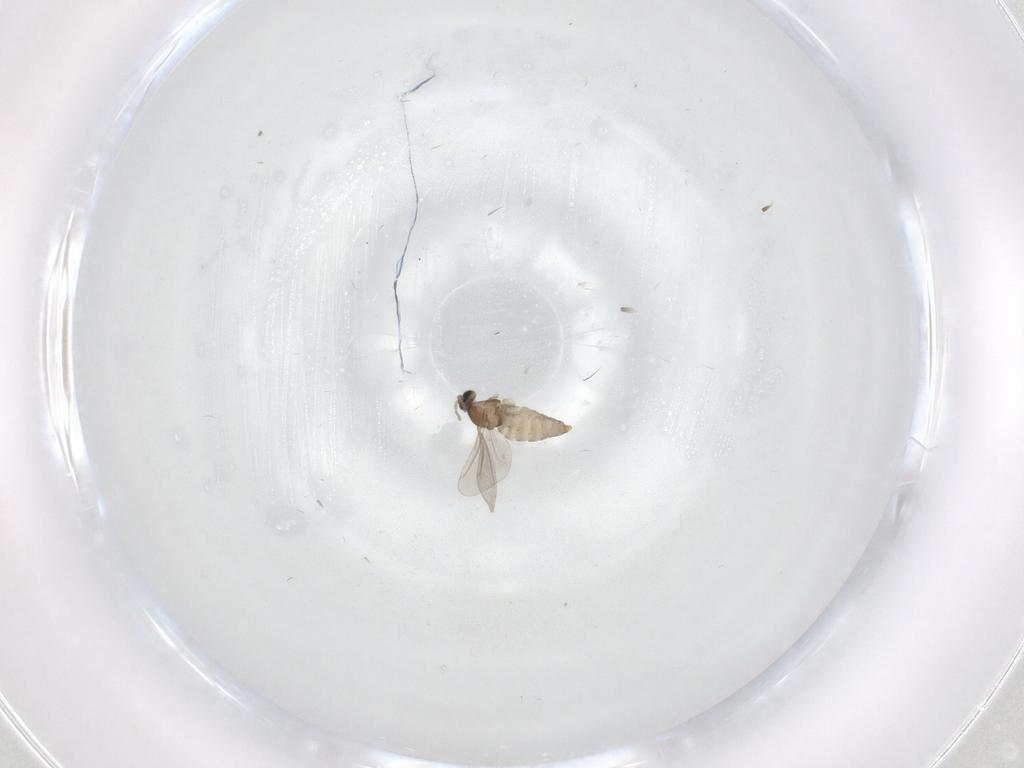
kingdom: Animalia
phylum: Arthropoda
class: Insecta
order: Diptera
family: Cecidomyiidae
